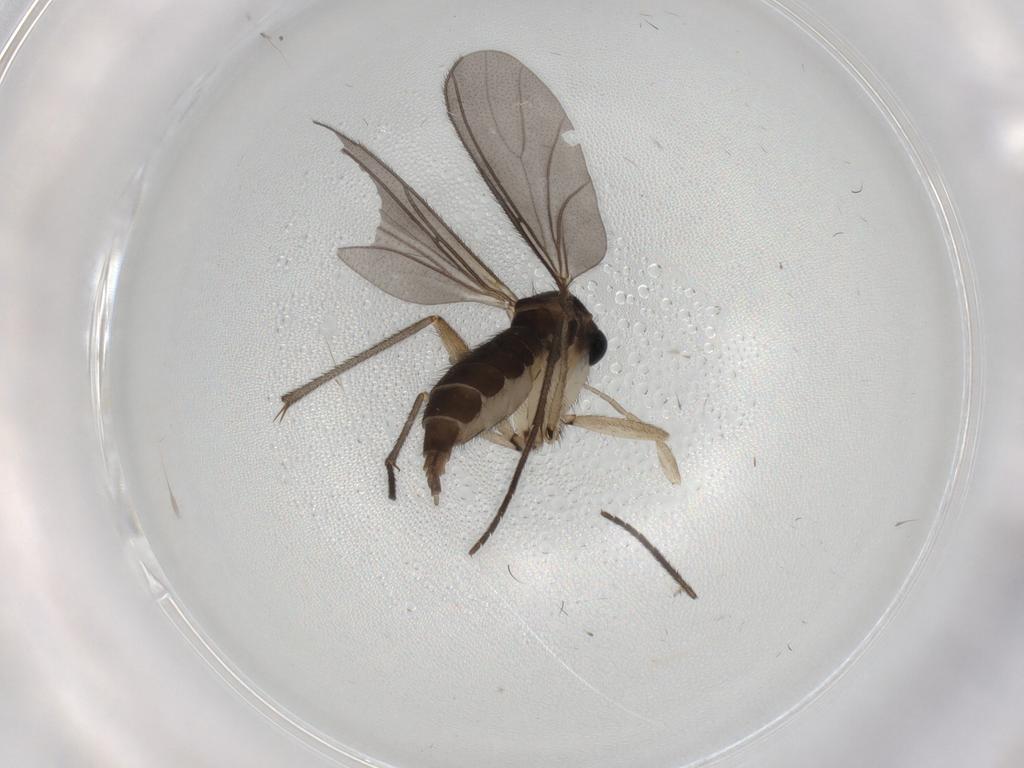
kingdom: Animalia
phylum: Arthropoda
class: Insecta
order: Diptera
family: Sciaridae
